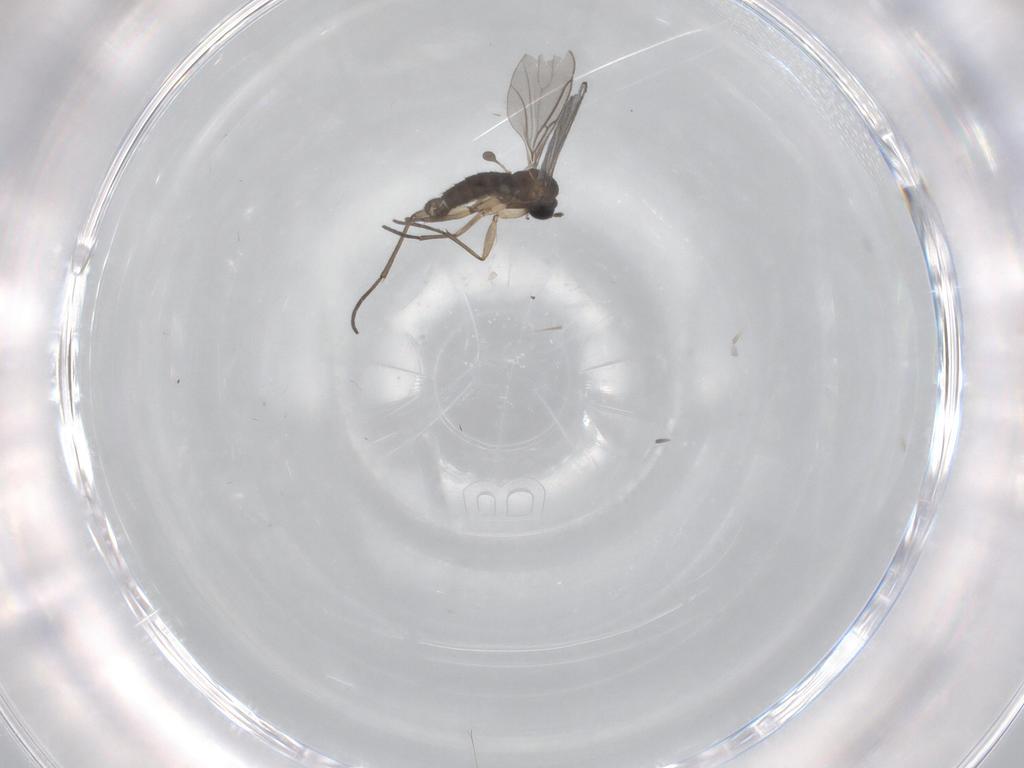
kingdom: Animalia
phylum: Arthropoda
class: Insecta
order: Diptera
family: Sciaridae
